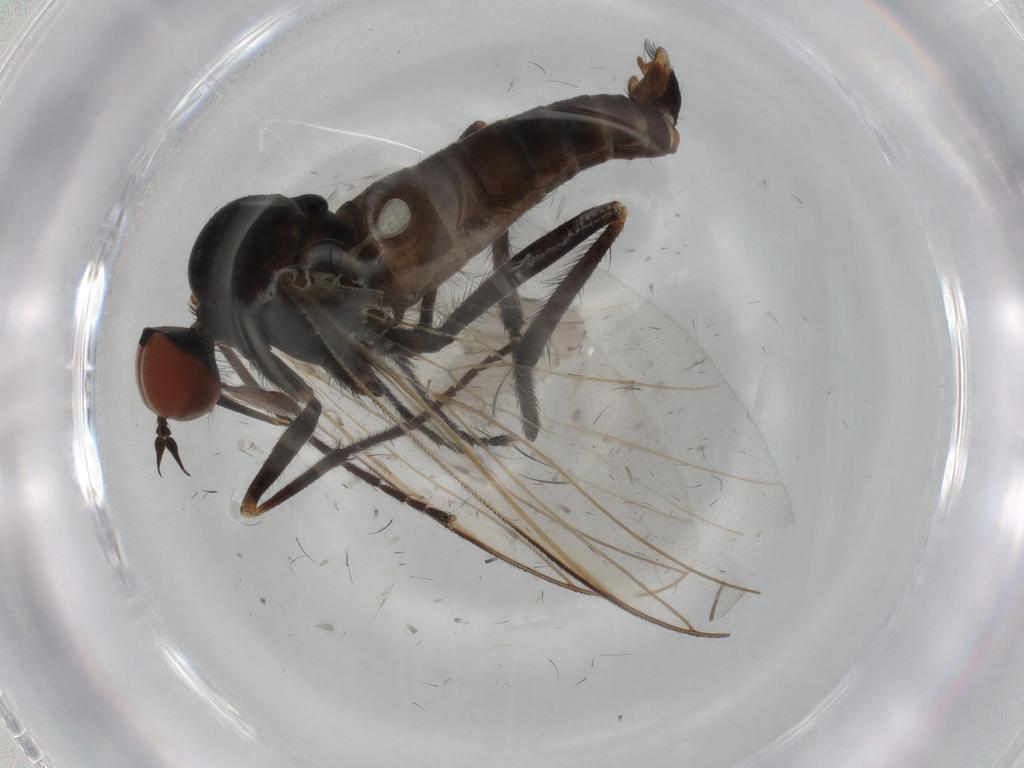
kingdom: Animalia
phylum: Arthropoda
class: Insecta
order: Diptera
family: Empididae
